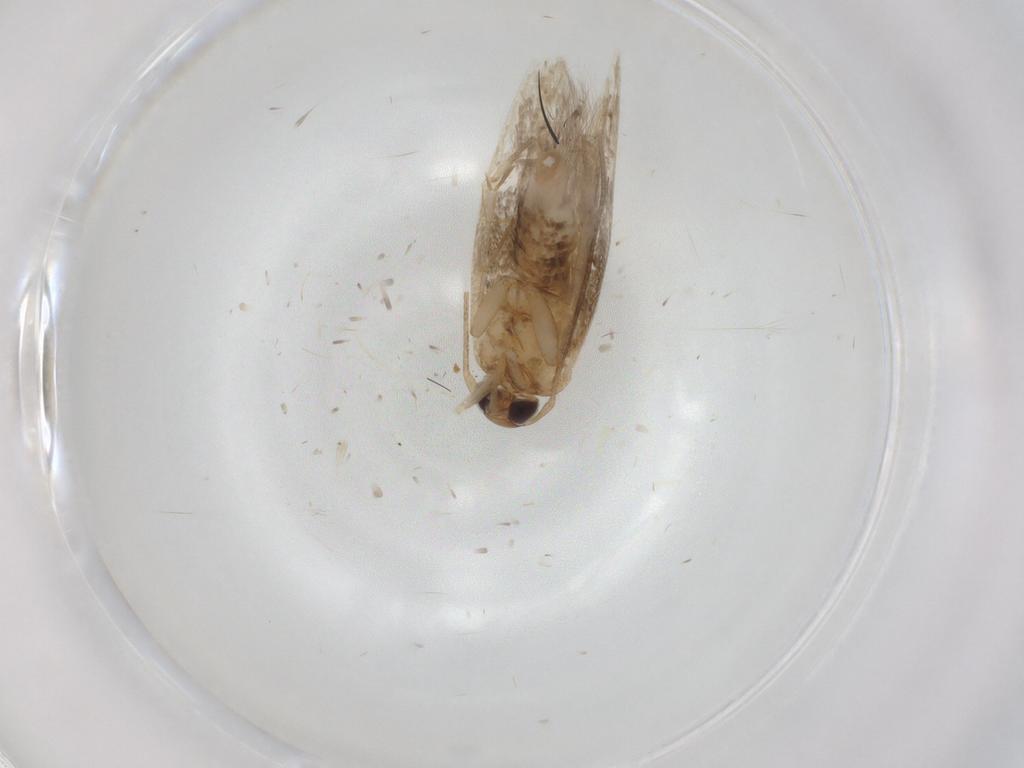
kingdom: Animalia
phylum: Arthropoda
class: Insecta
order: Lepidoptera
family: Cosmopterigidae
